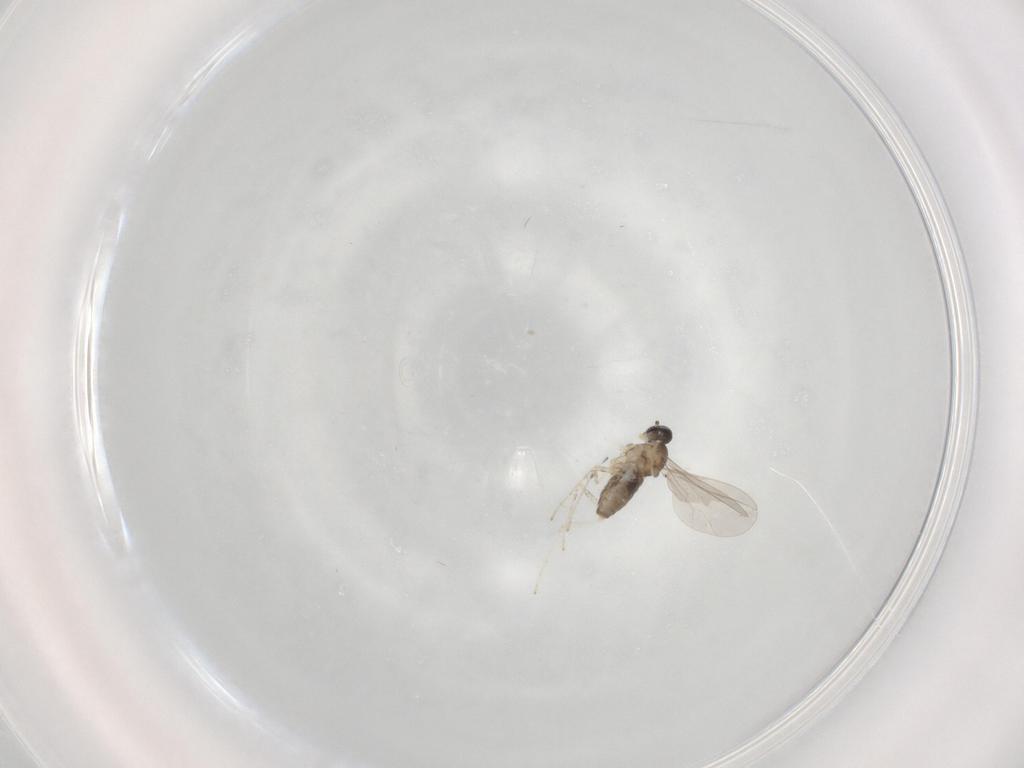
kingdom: Animalia
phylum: Arthropoda
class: Insecta
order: Diptera
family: Cecidomyiidae
